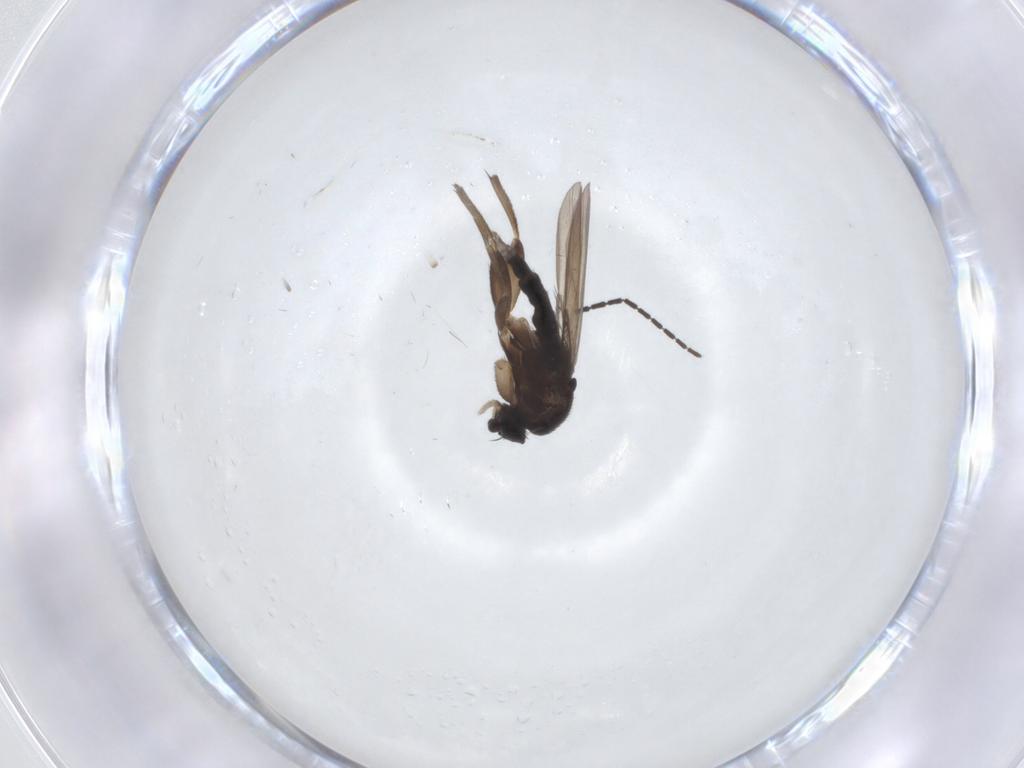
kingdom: Animalia
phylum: Arthropoda
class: Insecta
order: Diptera
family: Phoridae
